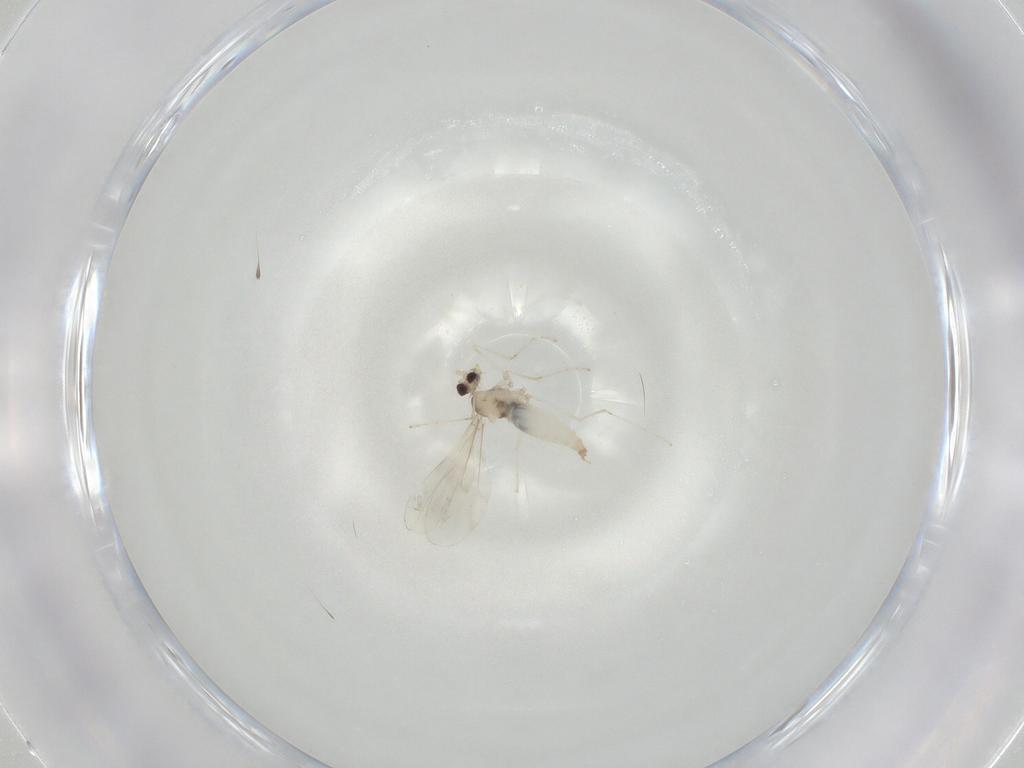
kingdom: Animalia
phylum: Arthropoda
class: Insecta
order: Diptera
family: Cecidomyiidae
